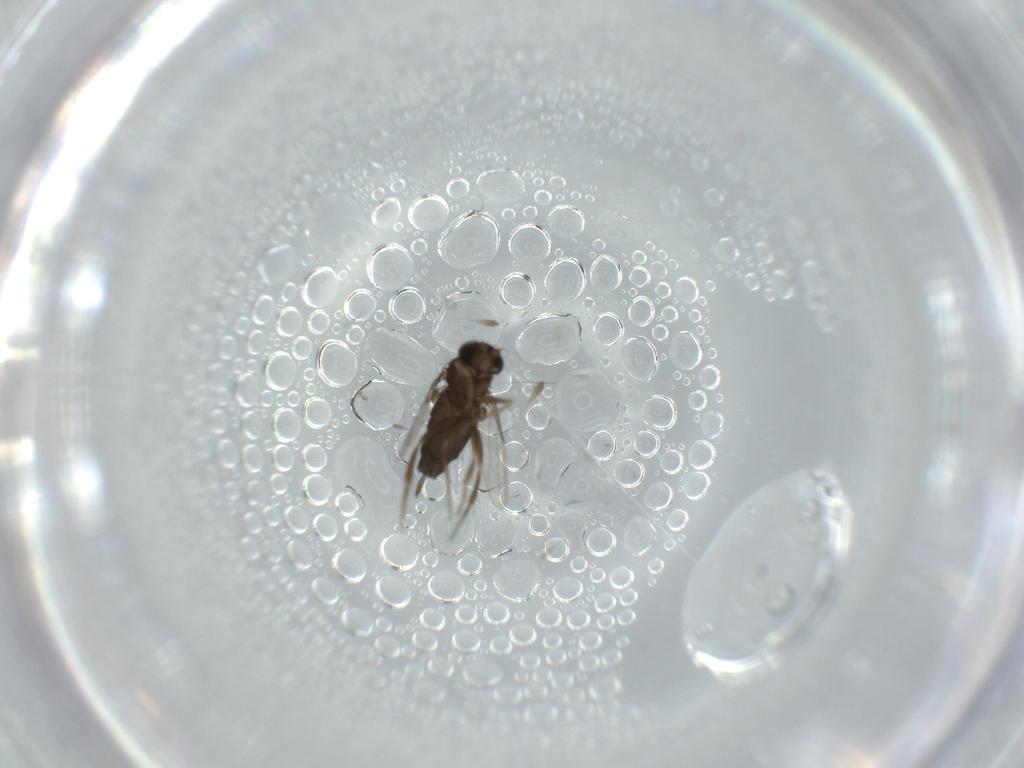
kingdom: Animalia
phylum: Arthropoda
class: Insecta
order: Diptera
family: Phoridae
